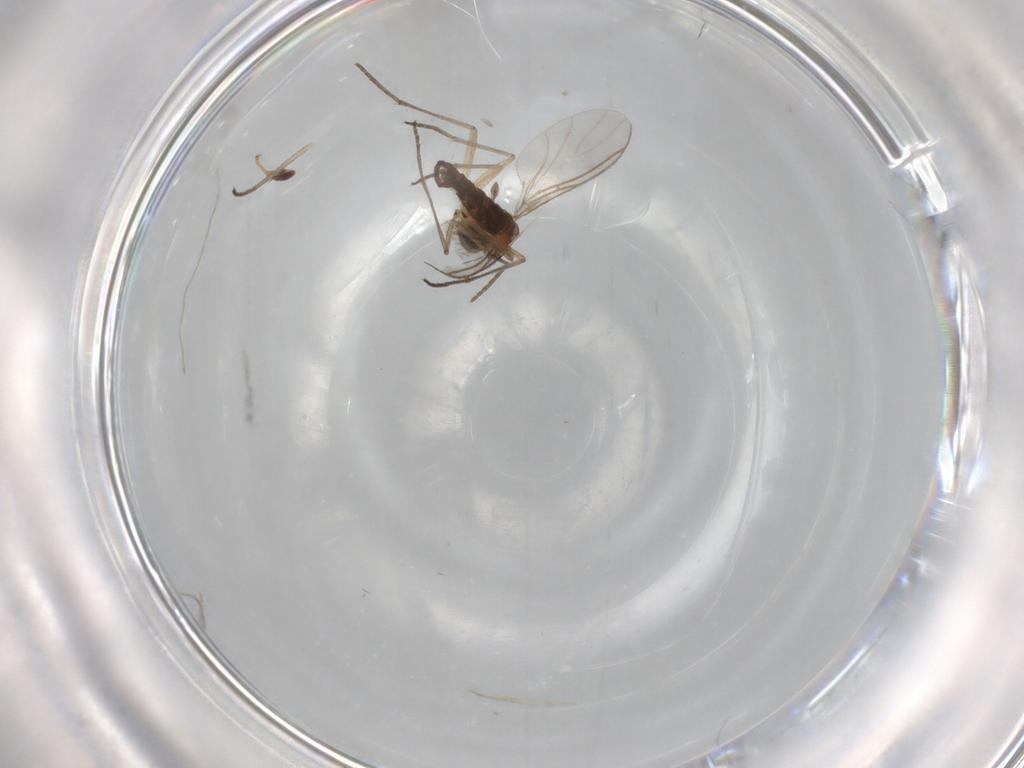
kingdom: Animalia
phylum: Arthropoda
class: Insecta
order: Diptera
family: Sciaridae
